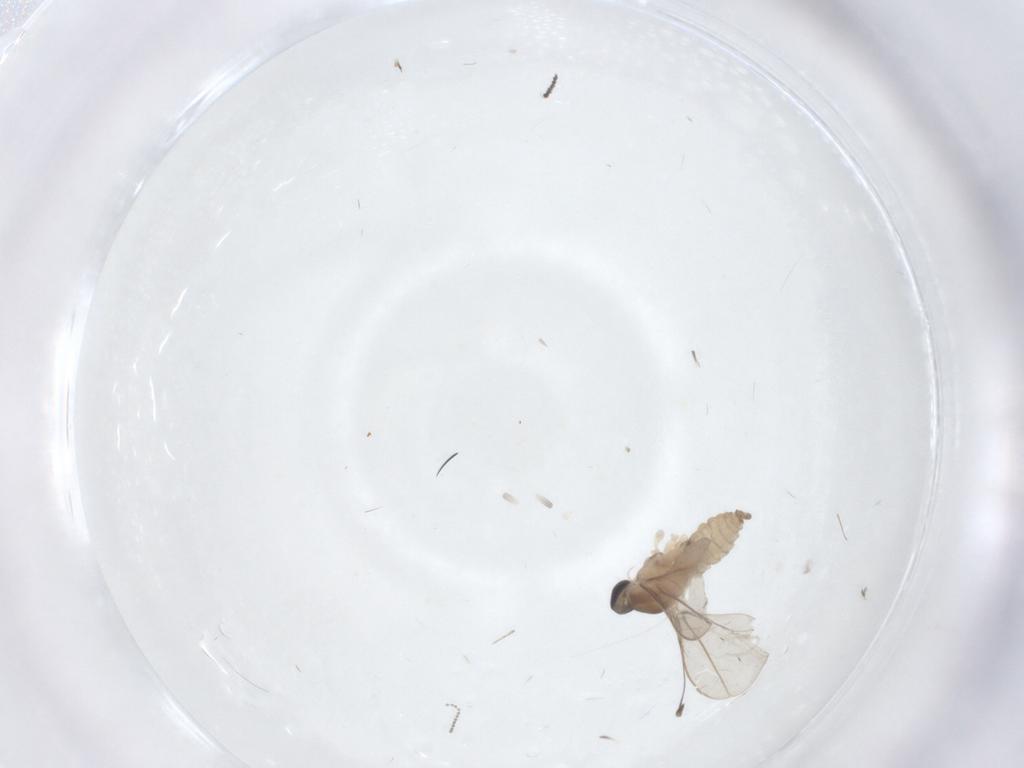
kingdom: Animalia
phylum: Arthropoda
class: Insecta
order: Diptera
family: Cecidomyiidae
